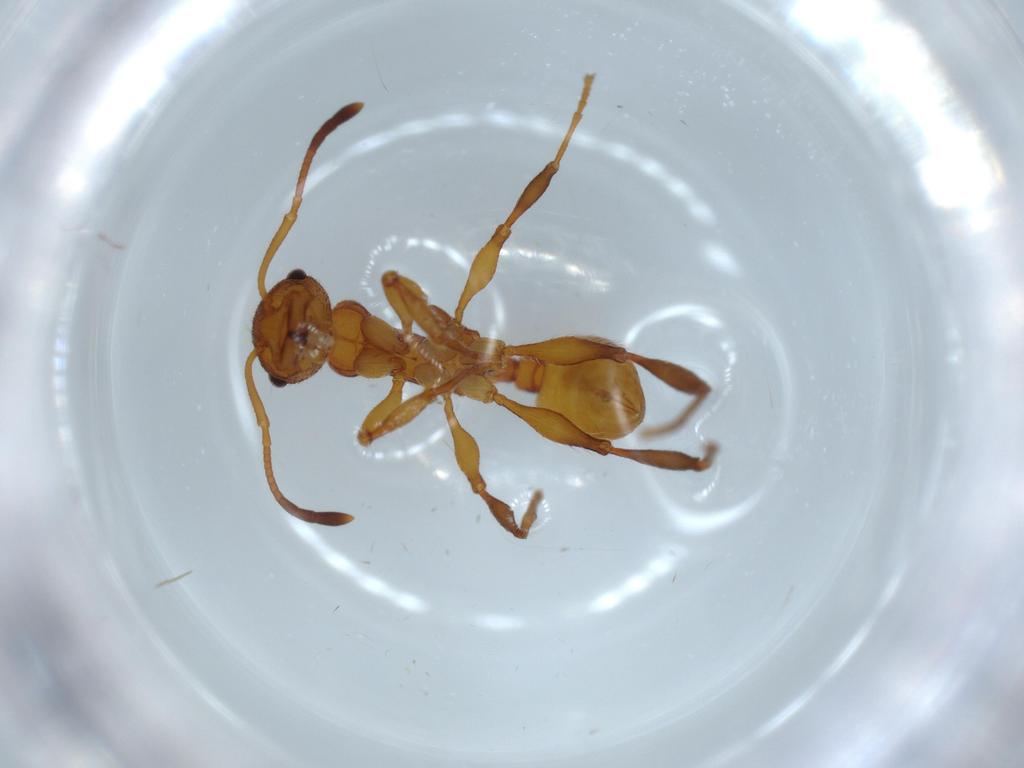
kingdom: Animalia
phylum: Arthropoda
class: Insecta
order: Hymenoptera
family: Formicidae
